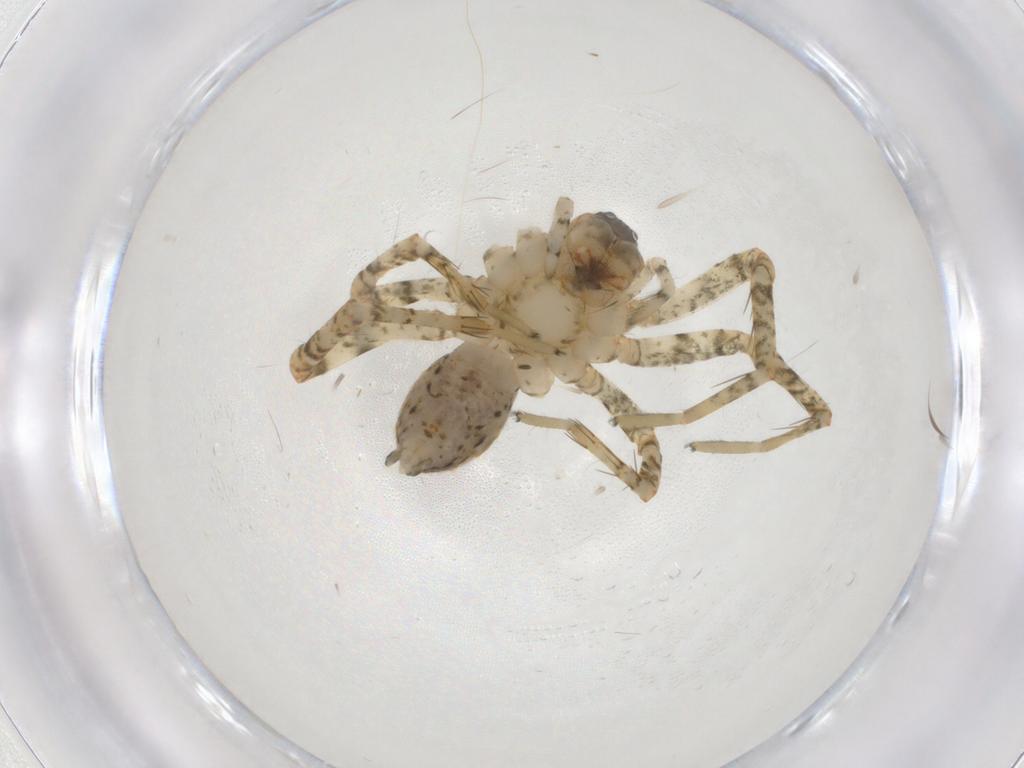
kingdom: Animalia
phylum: Arthropoda
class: Arachnida
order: Araneae
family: Anyphaenidae
